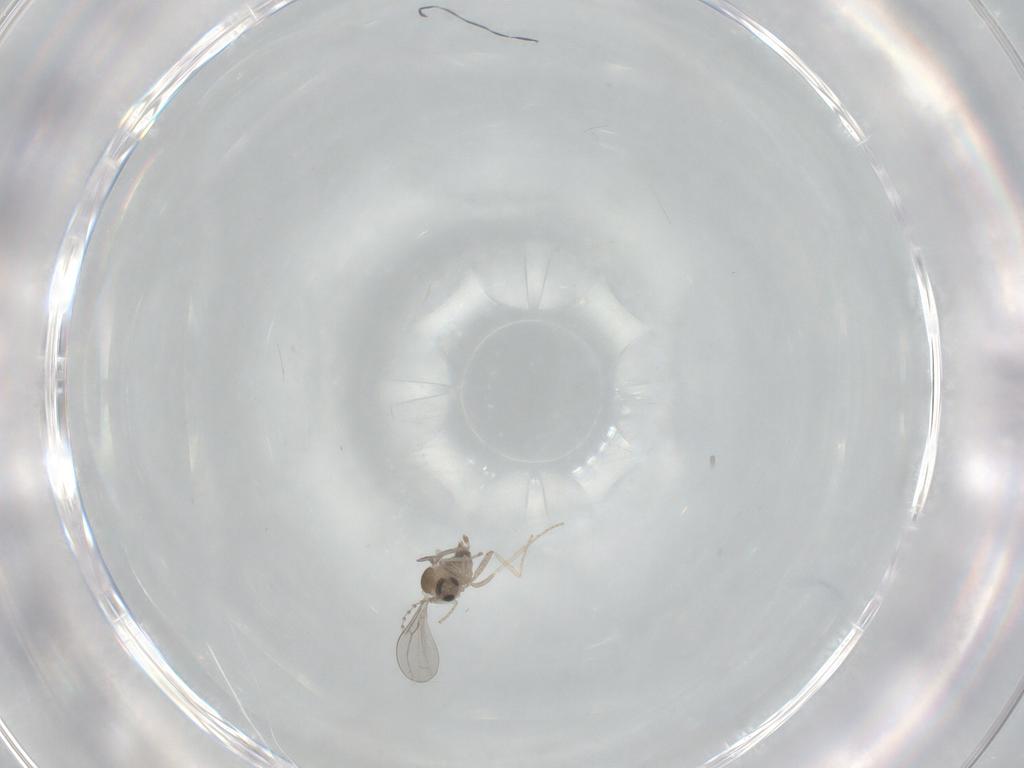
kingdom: Animalia
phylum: Arthropoda
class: Insecta
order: Diptera
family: Cecidomyiidae
